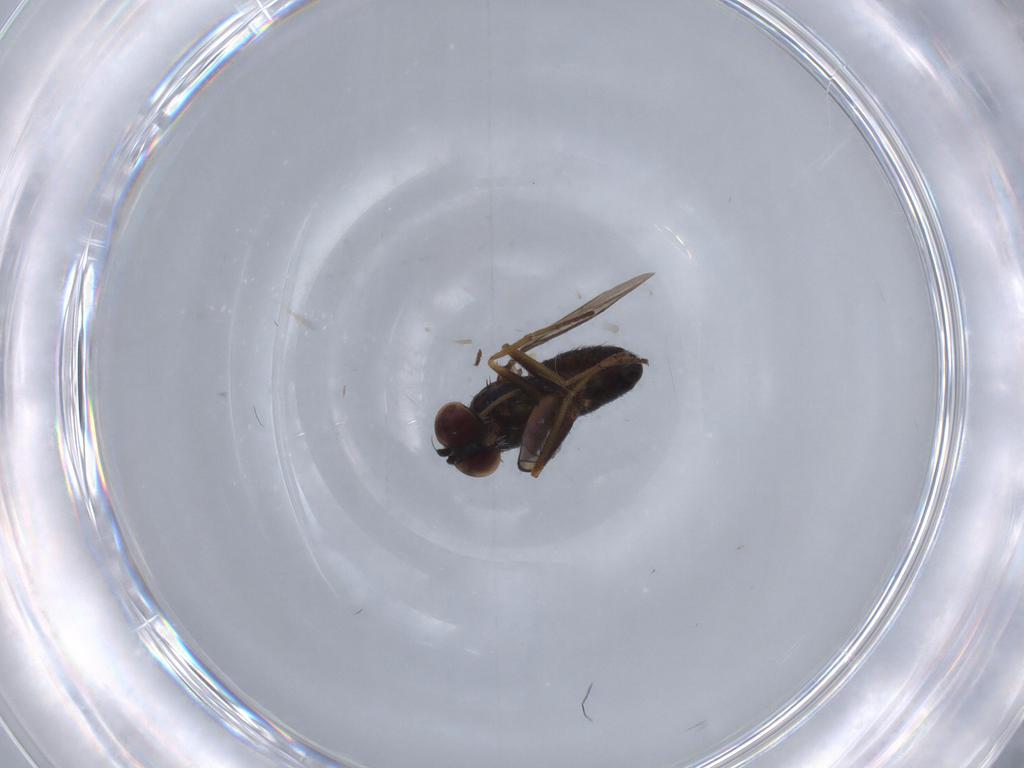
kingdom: Animalia
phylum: Arthropoda
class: Insecta
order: Diptera
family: Dolichopodidae
